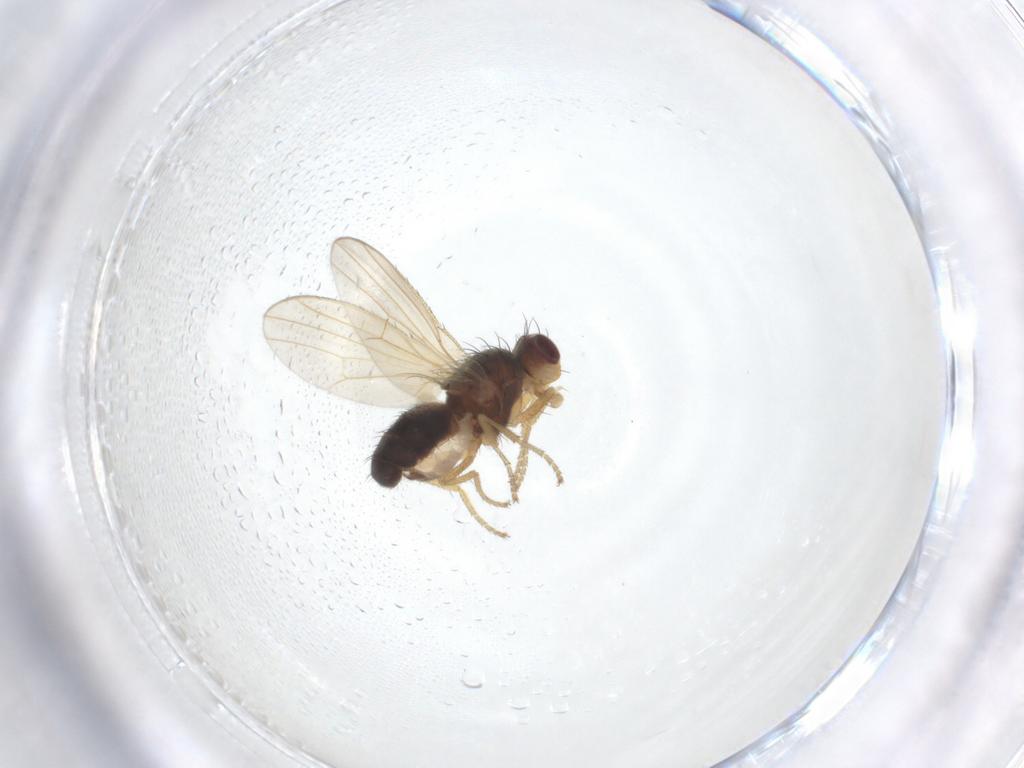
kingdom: Animalia
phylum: Arthropoda
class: Insecta
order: Diptera
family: Heleomyzidae
